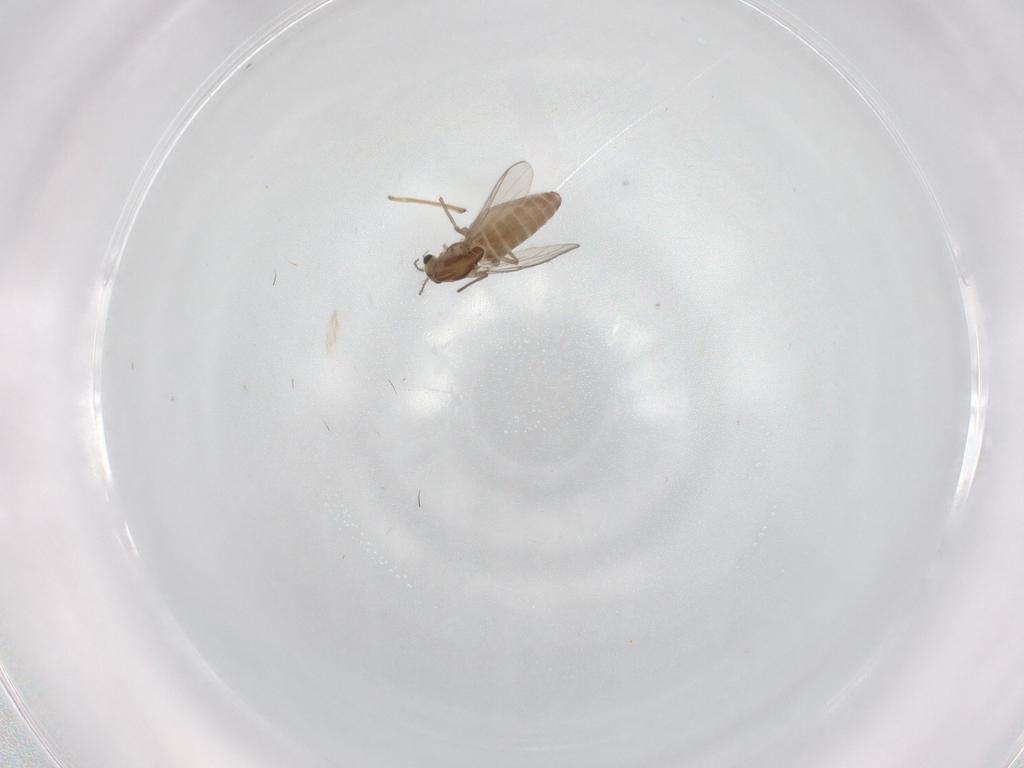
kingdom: Animalia
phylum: Arthropoda
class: Insecta
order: Diptera
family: Chironomidae
